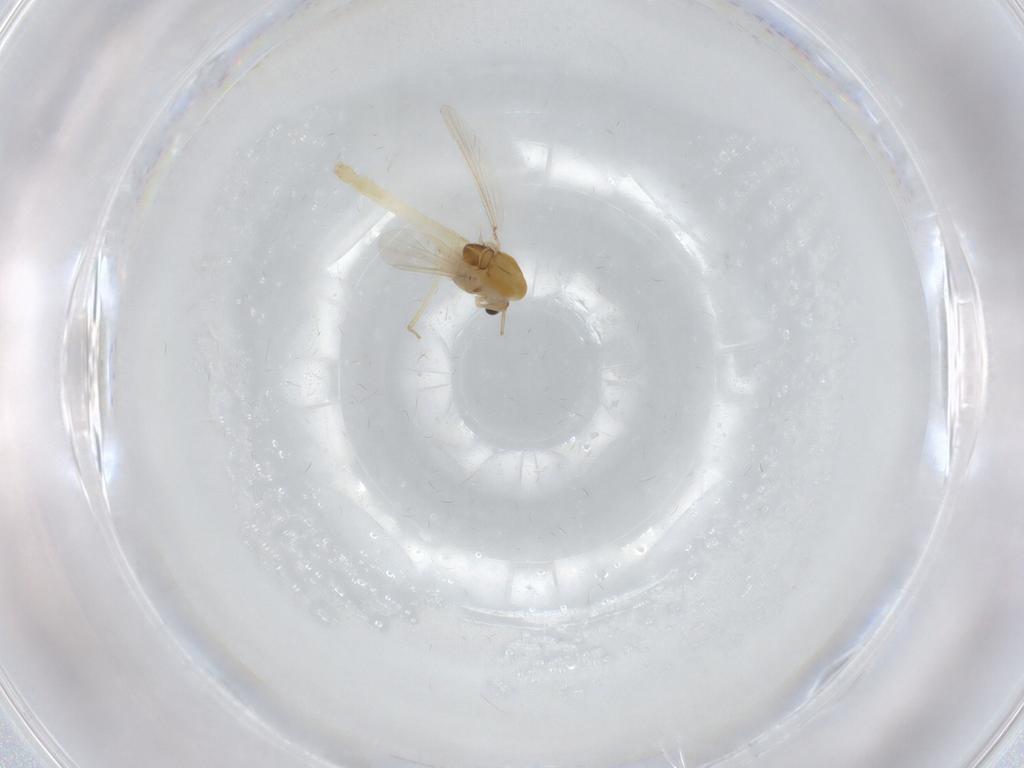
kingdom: Animalia
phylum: Arthropoda
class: Insecta
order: Diptera
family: Chironomidae
